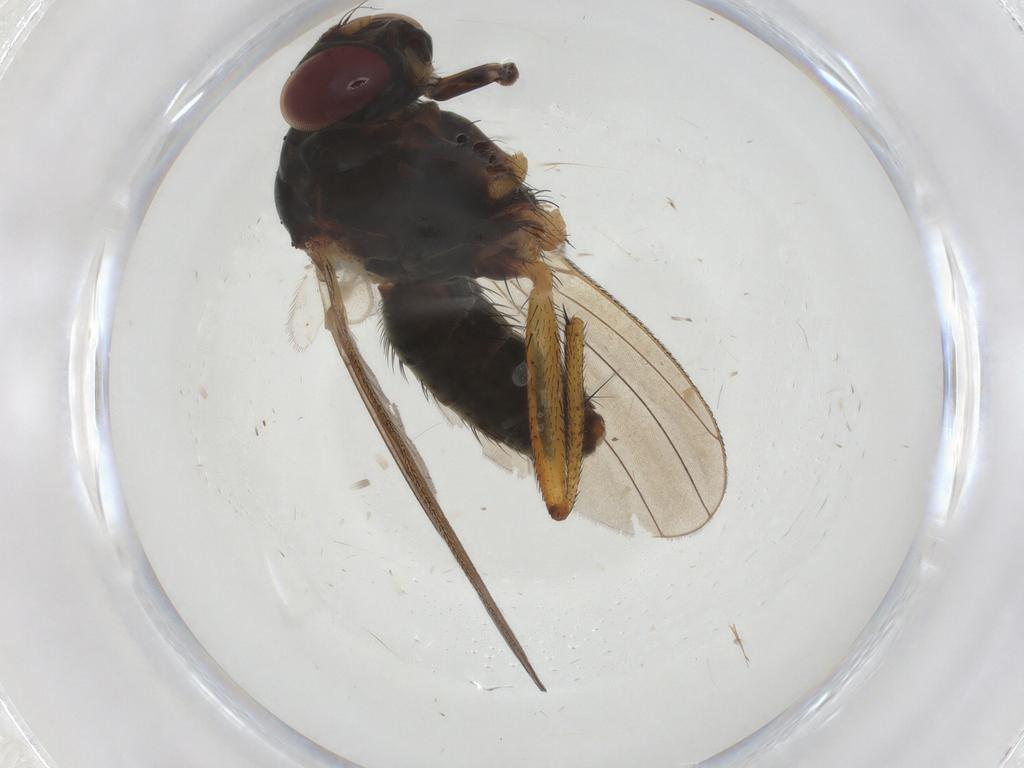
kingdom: Animalia
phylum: Arthropoda
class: Insecta
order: Diptera
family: Muscidae
